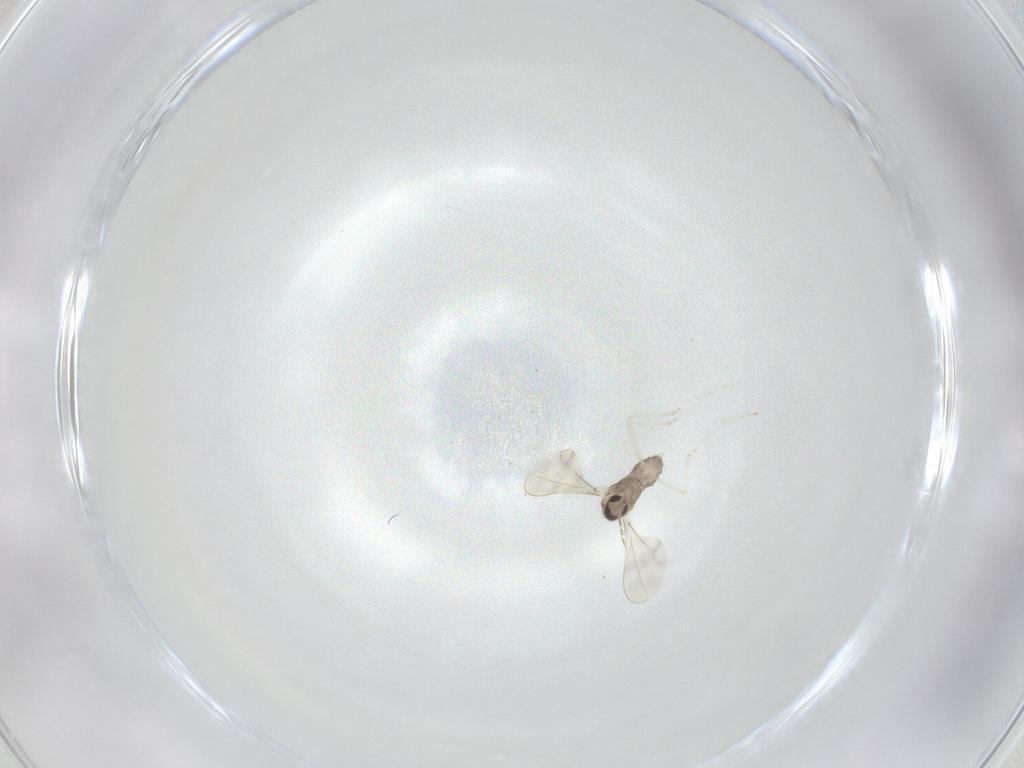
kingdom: Animalia
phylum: Arthropoda
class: Insecta
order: Diptera
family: Cecidomyiidae
